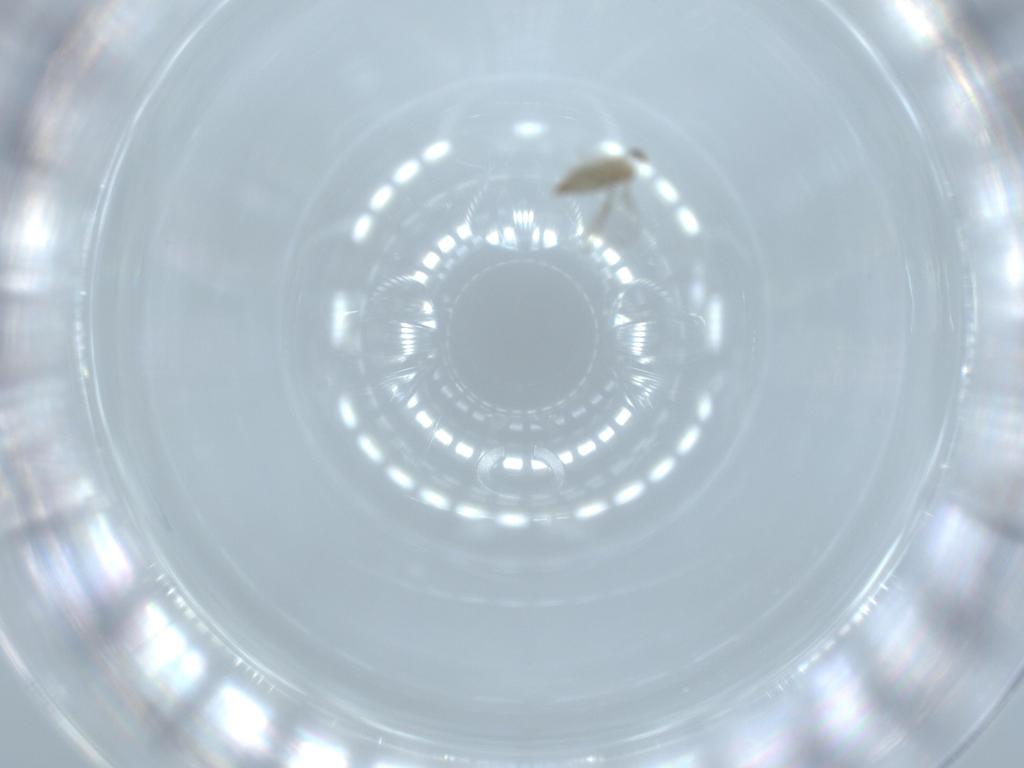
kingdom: Animalia
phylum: Arthropoda
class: Insecta
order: Diptera
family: Cecidomyiidae
